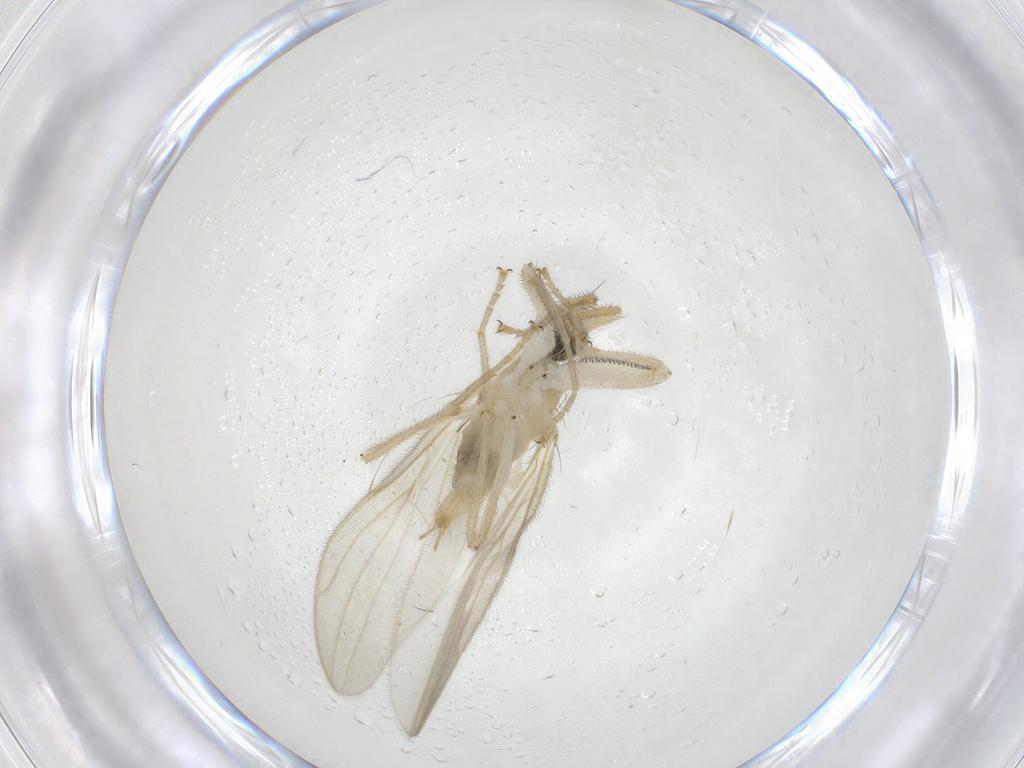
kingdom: Animalia
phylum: Arthropoda
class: Insecta
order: Diptera
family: Hybotidae
